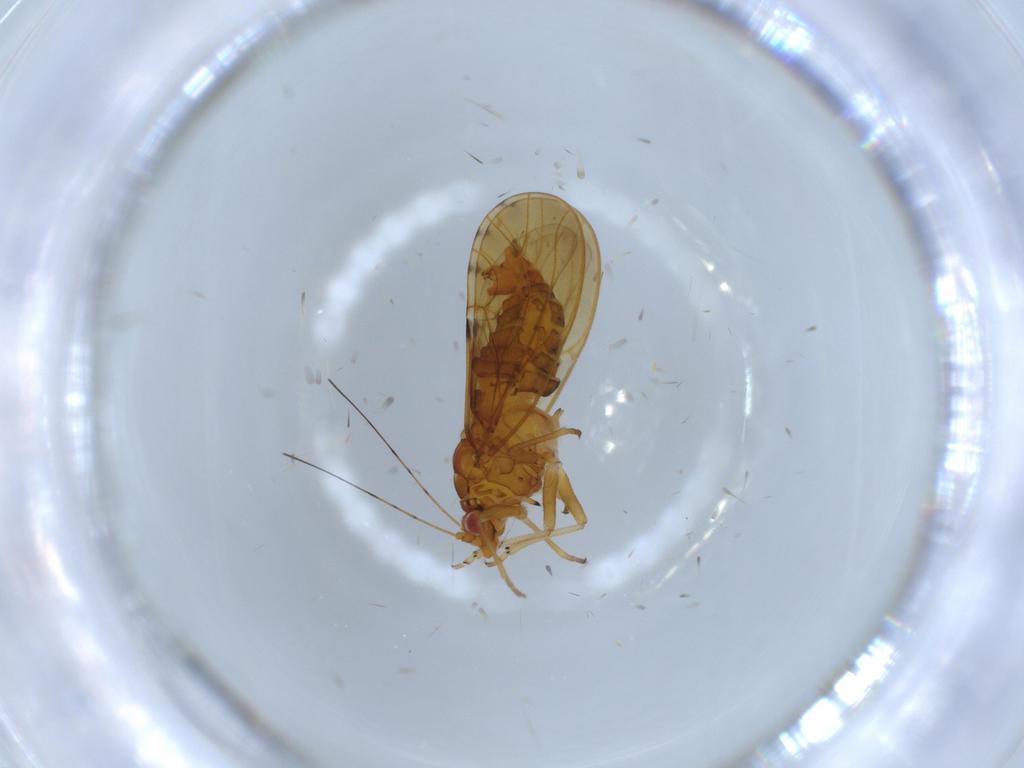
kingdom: Animalia
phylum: Arthropoda
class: Insecta
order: Hemiptera
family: Psylloidea_incertae_sedis
